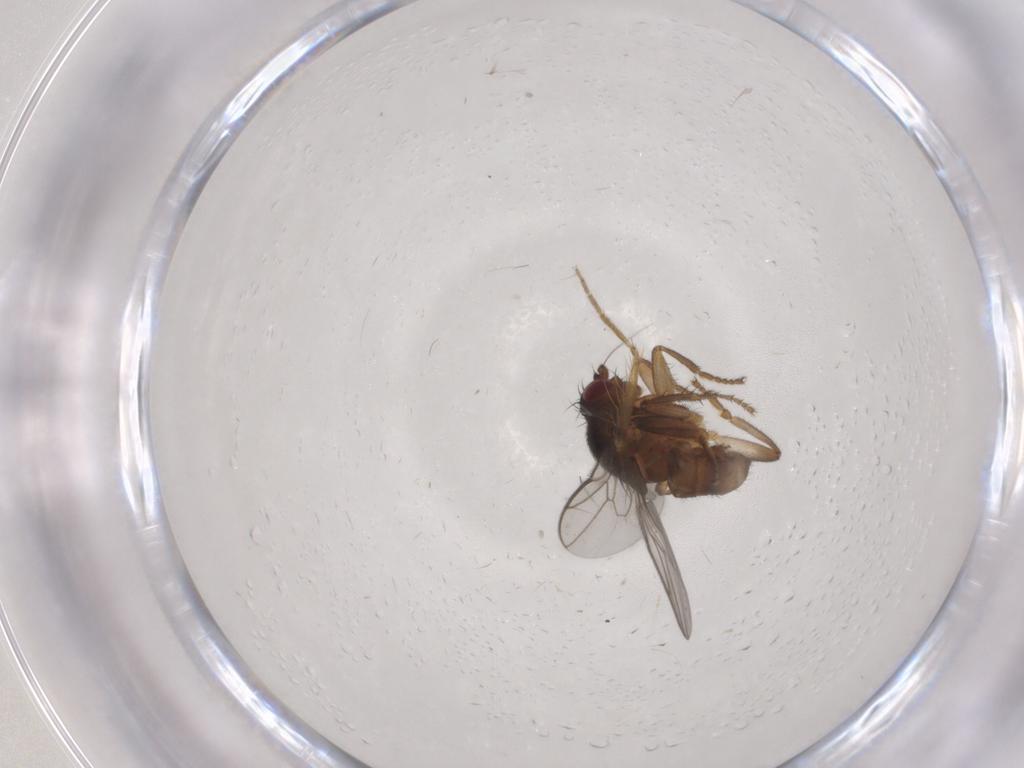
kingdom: Animalia
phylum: Arthropoda
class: Insecta
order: Diptera
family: Sphaeroceridae
